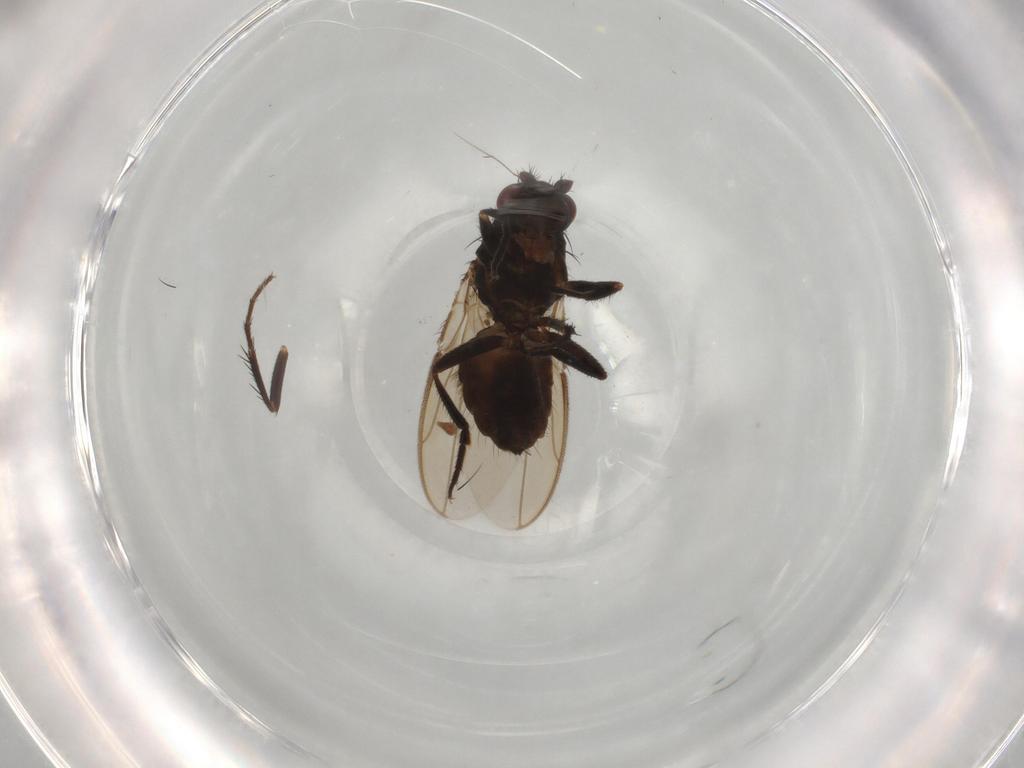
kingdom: Animalia
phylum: Arthropoda
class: Insecta
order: Diptera
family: Sphaeroceridae
